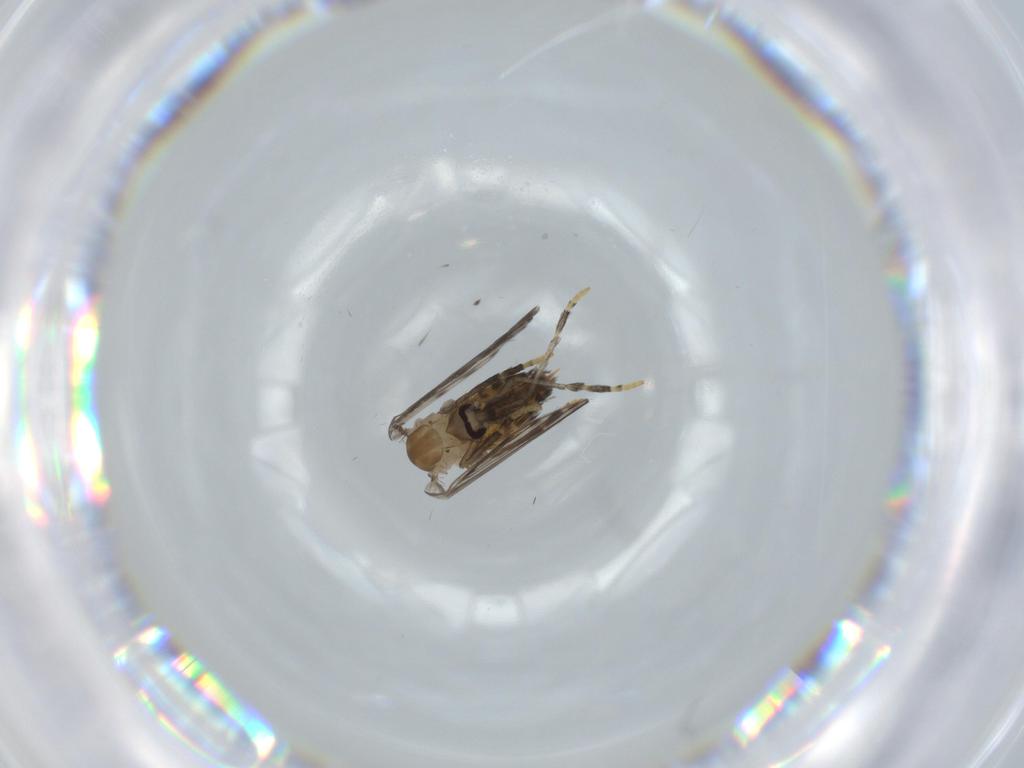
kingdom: Animalia
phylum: Arthropoda
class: Insecta
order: Diptera
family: Psychodidae
